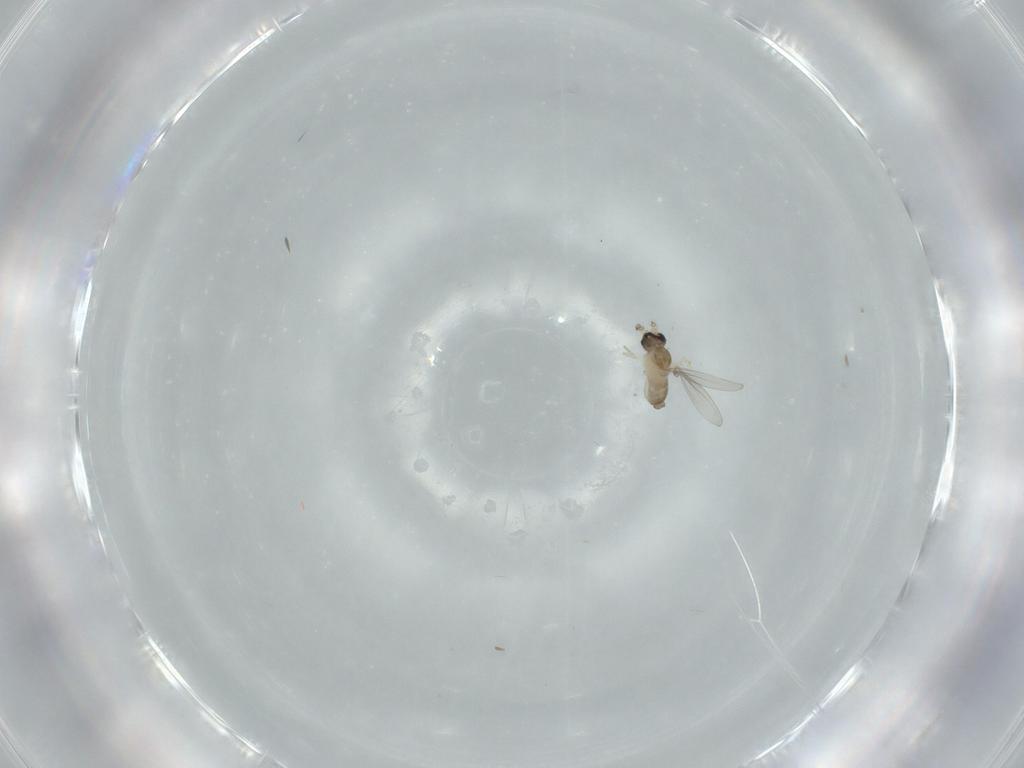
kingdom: Animalia
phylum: Arthropoda
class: Insecta
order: Diptera
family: Cecidomyiidae
